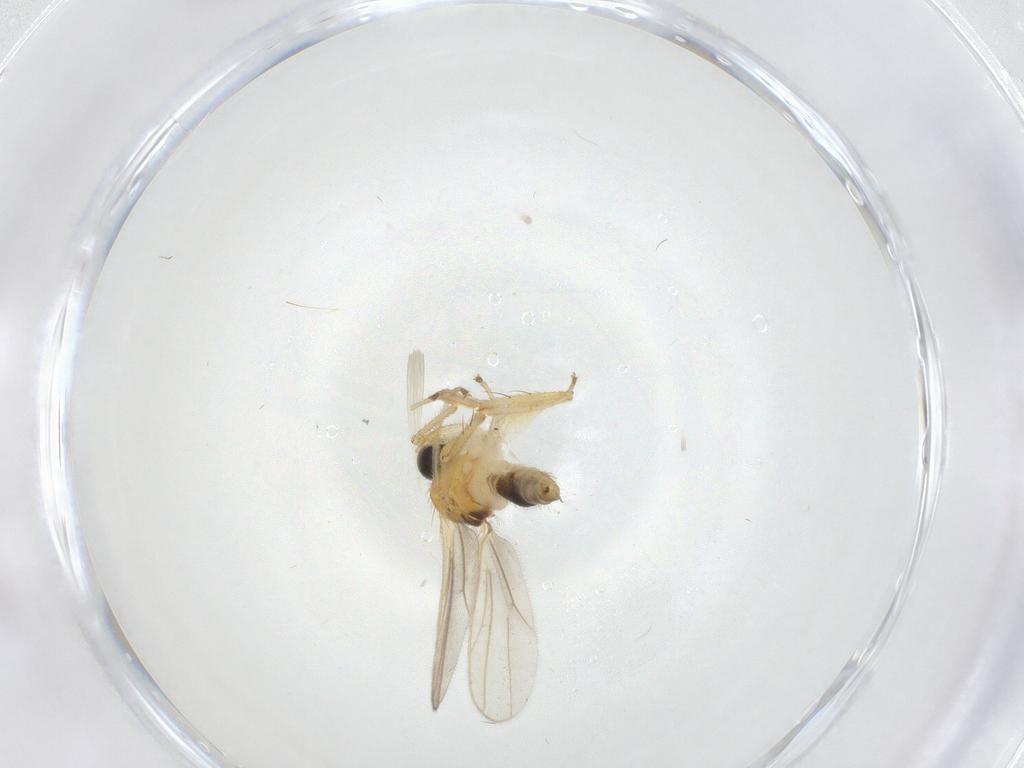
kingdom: Animalia
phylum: Arthropoda
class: Insecta
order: Diptera
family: Hybotidae
